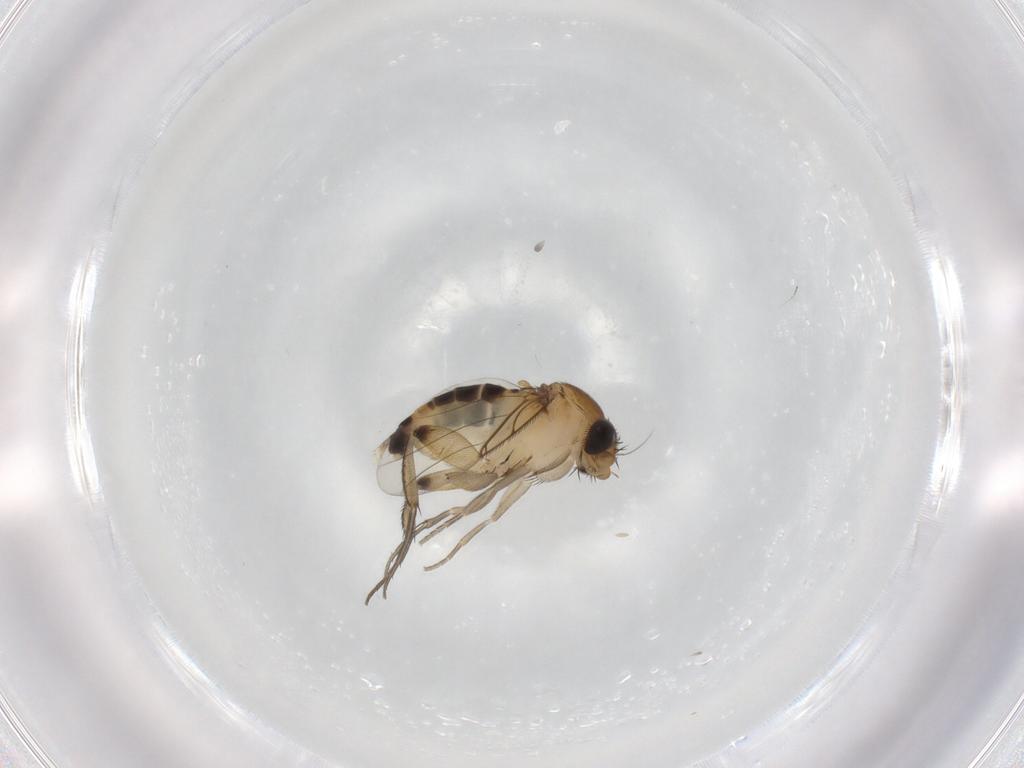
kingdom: Animalia
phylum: Arthropoda
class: Insecta
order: Diptera
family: Phoridae
